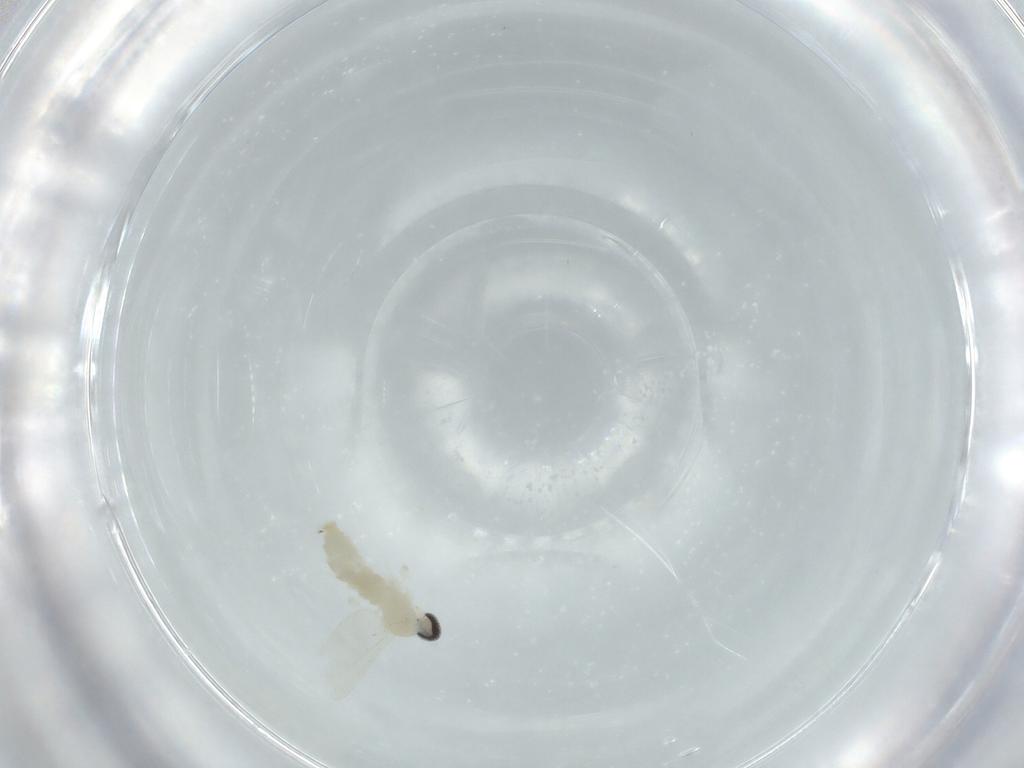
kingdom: Animalia
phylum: Arthropoda
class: Insecta
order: Diptera
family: Cecidomyiidae
